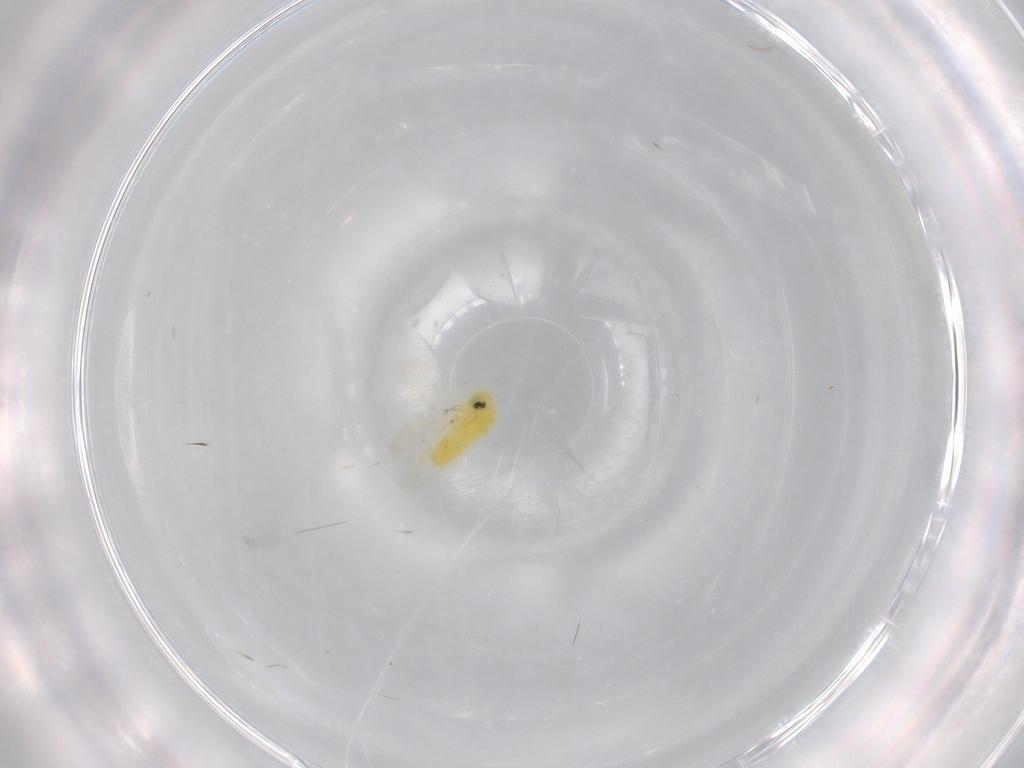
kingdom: Animalia
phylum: Arthropoda
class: Insecta
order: Hemiptera
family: Aleyrodidae
